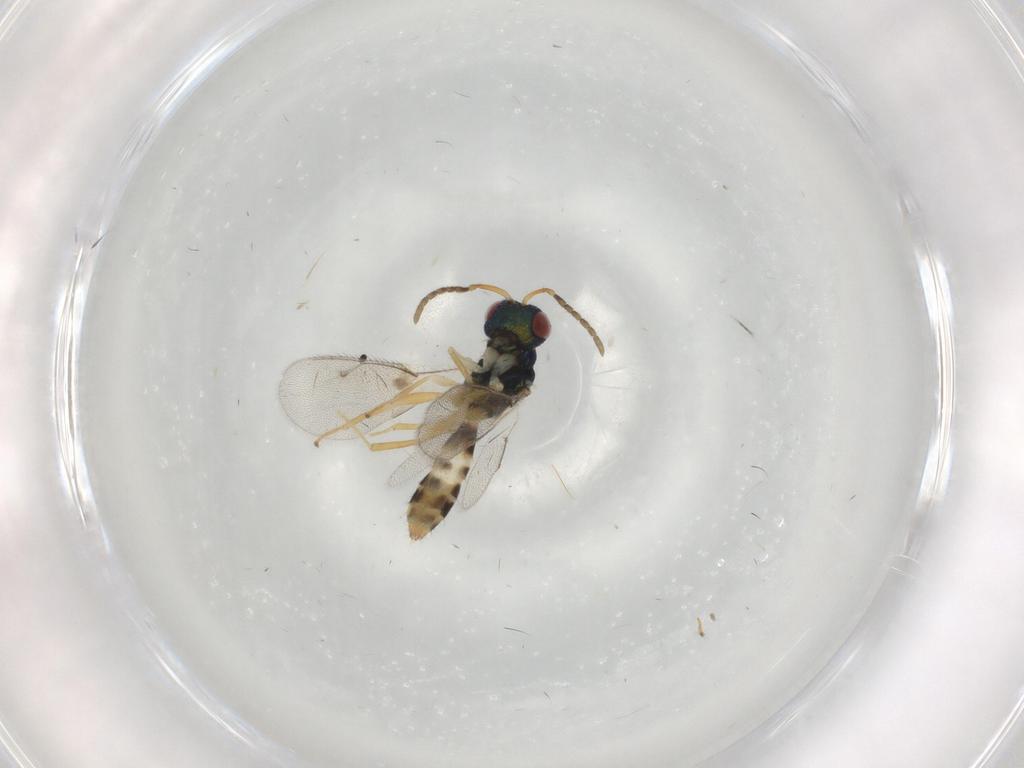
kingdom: Animalia
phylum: Arthropoda
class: Insecta
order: Hymenoptera
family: Pteromalidae
